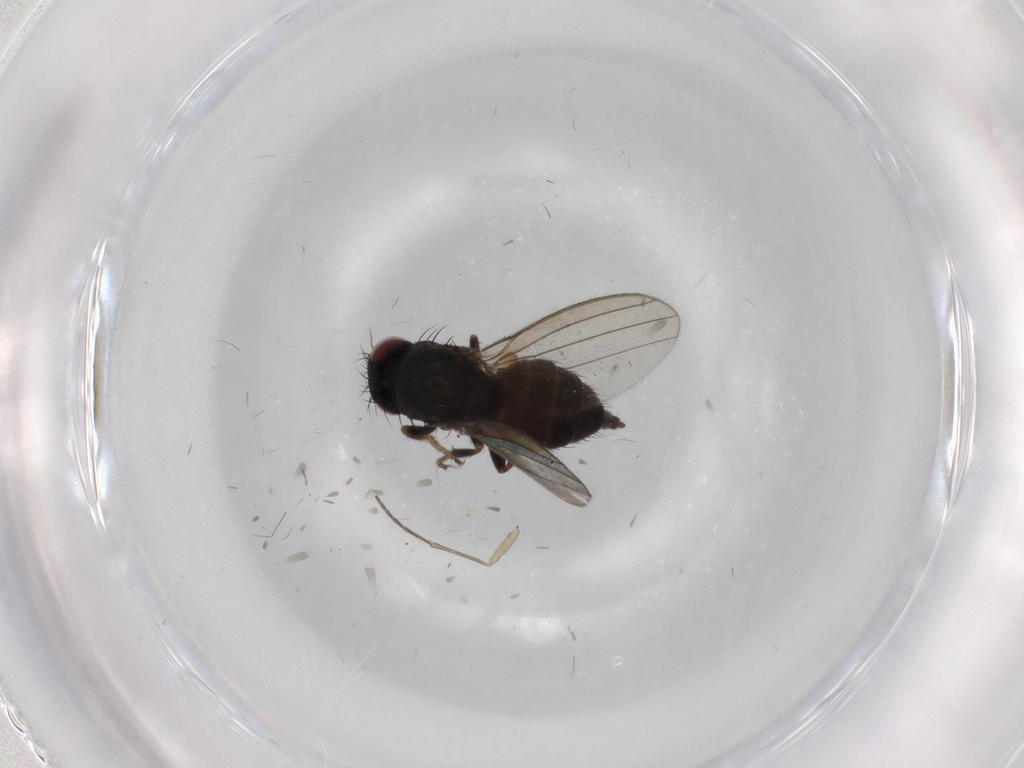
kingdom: Animalia
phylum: Arthropoda
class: Insecta
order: Diptera
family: Milichiidae
